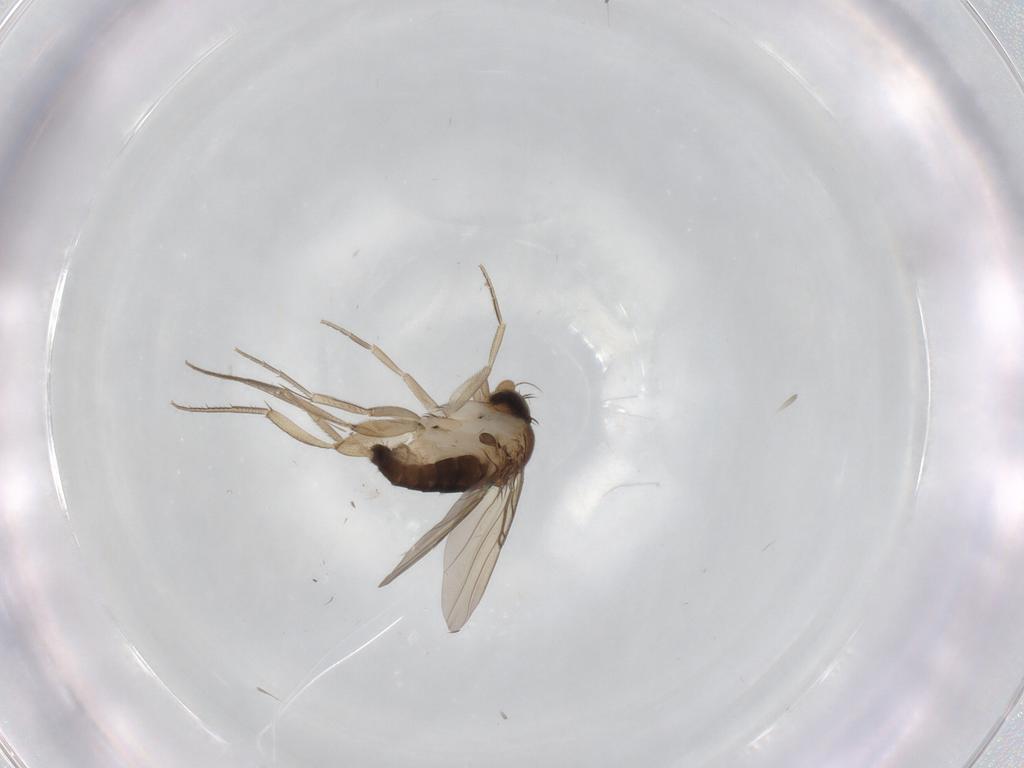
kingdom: Animalia
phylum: Arthropoda
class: Insecta
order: Diptera
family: Phoridae
